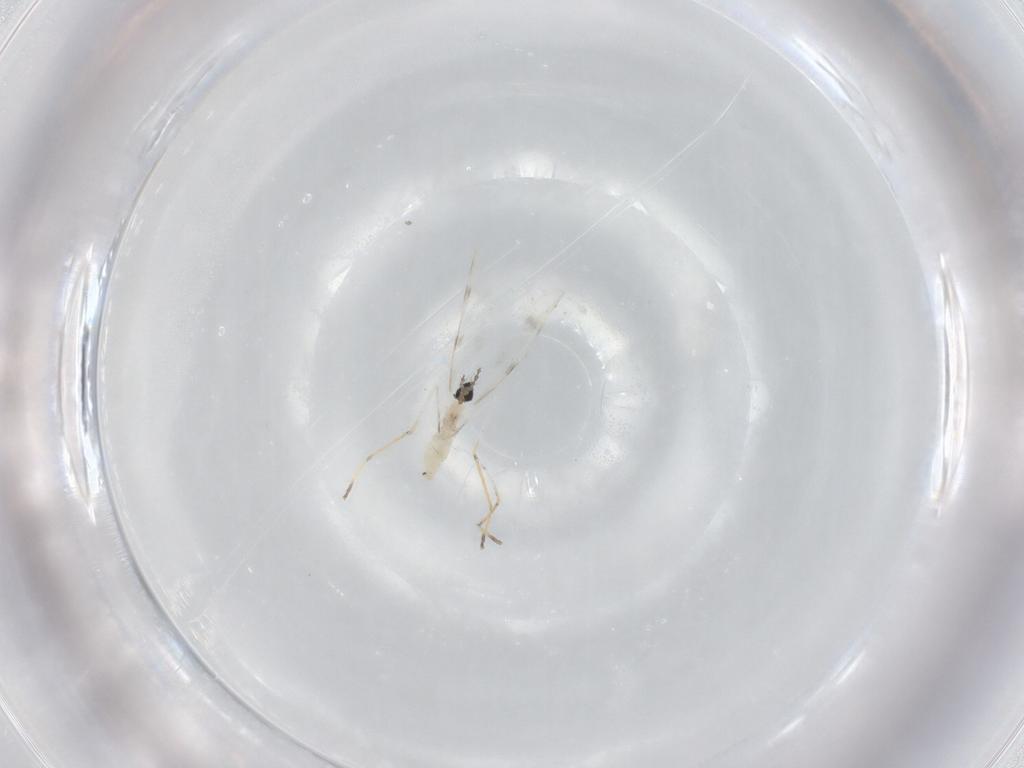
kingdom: Animalia
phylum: Arthropoda
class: Insecta
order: Diptera
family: Cecidomyiidae
